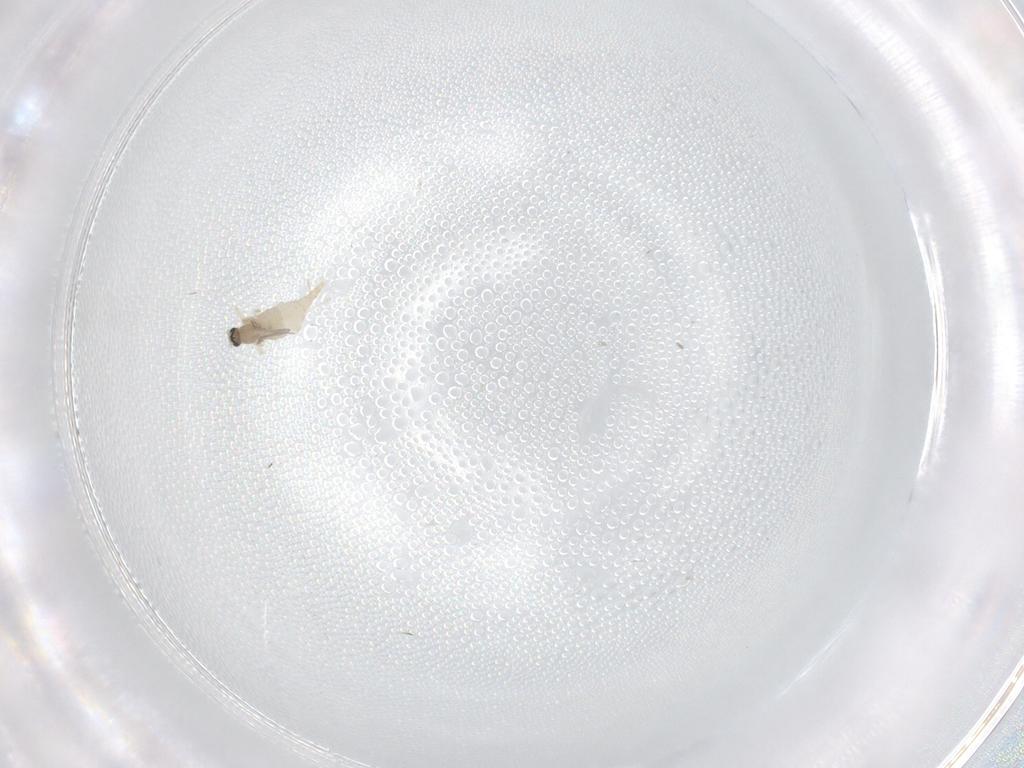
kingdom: Animalia
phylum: Arthropoda
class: Insecta
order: Diptera
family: Cecidomyiidae
